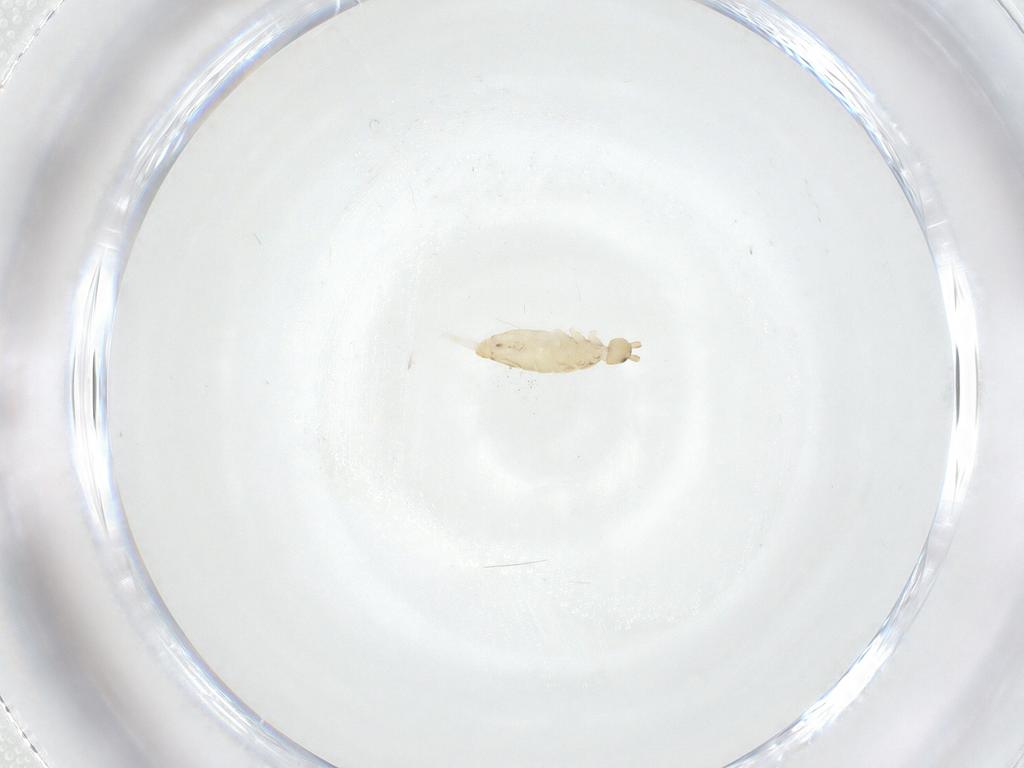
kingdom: Animalia
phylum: Arthropoda
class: Collembola
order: Entomobryomorpha
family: Entomobryidae
